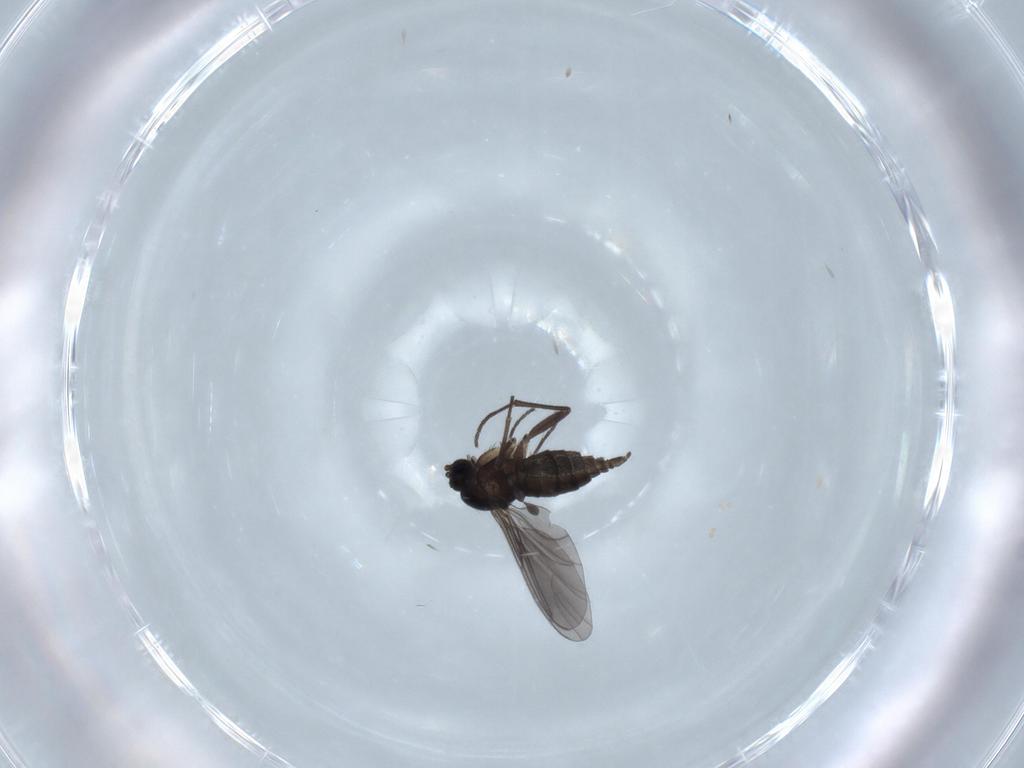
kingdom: Animalia
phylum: Arthropoda
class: Insecta
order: Diptera
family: Sciaridae
